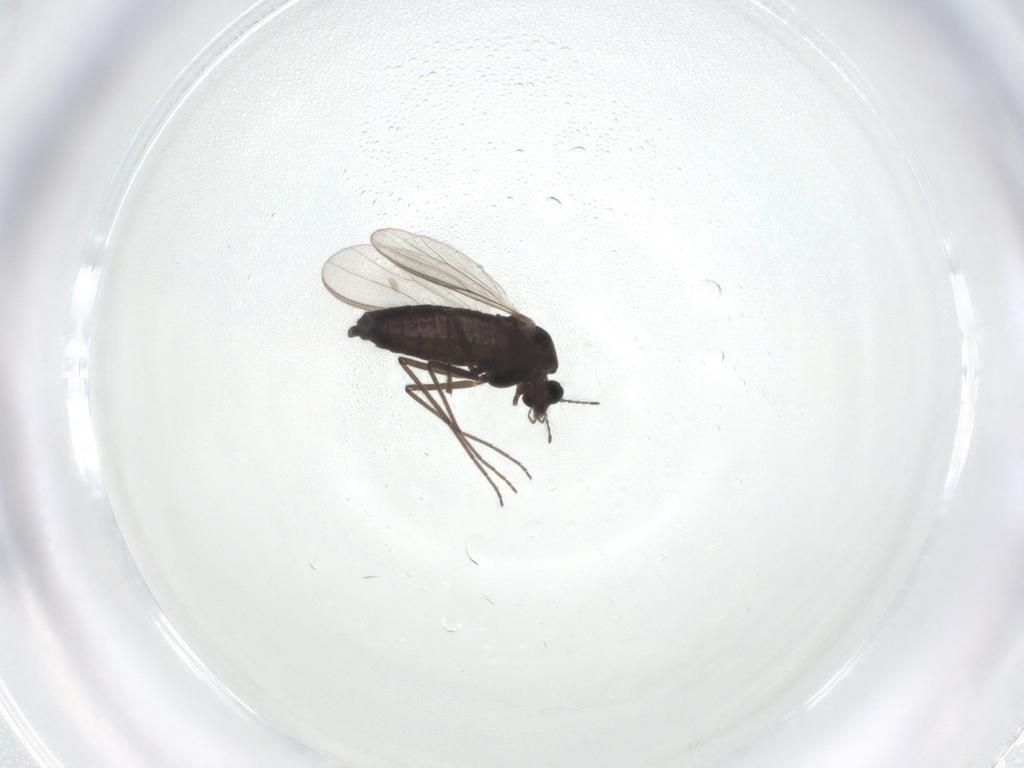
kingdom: Animalia
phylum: Arthropoda
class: Insecta
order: Diptera
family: Chironomidae
